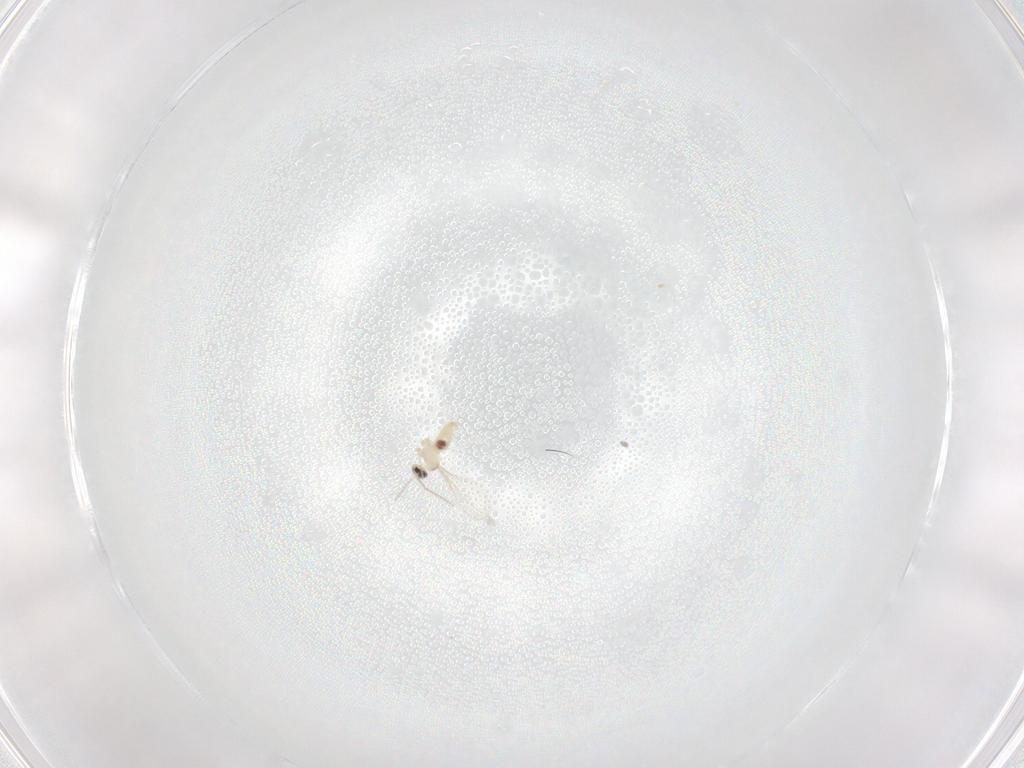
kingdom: Animalia
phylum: Arthropoda
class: Insecta
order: Diptera
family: Cecidomyiidae
